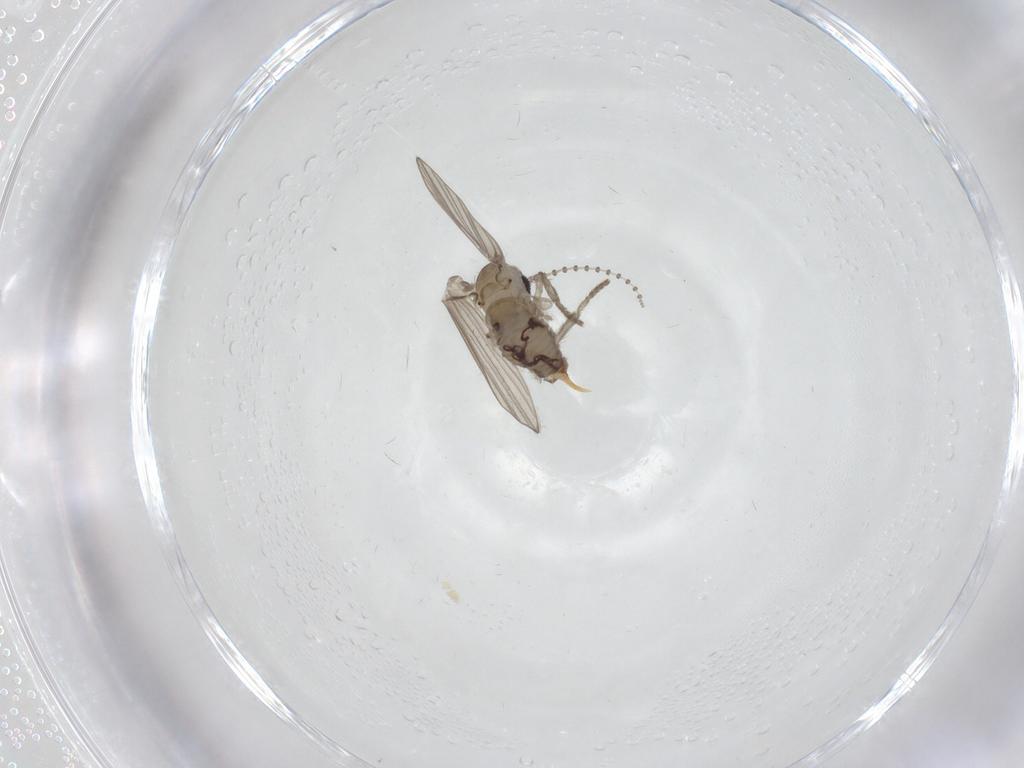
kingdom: Animalia
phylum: Arthropoda
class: Insecta
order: Diptera
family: Psychodidae
